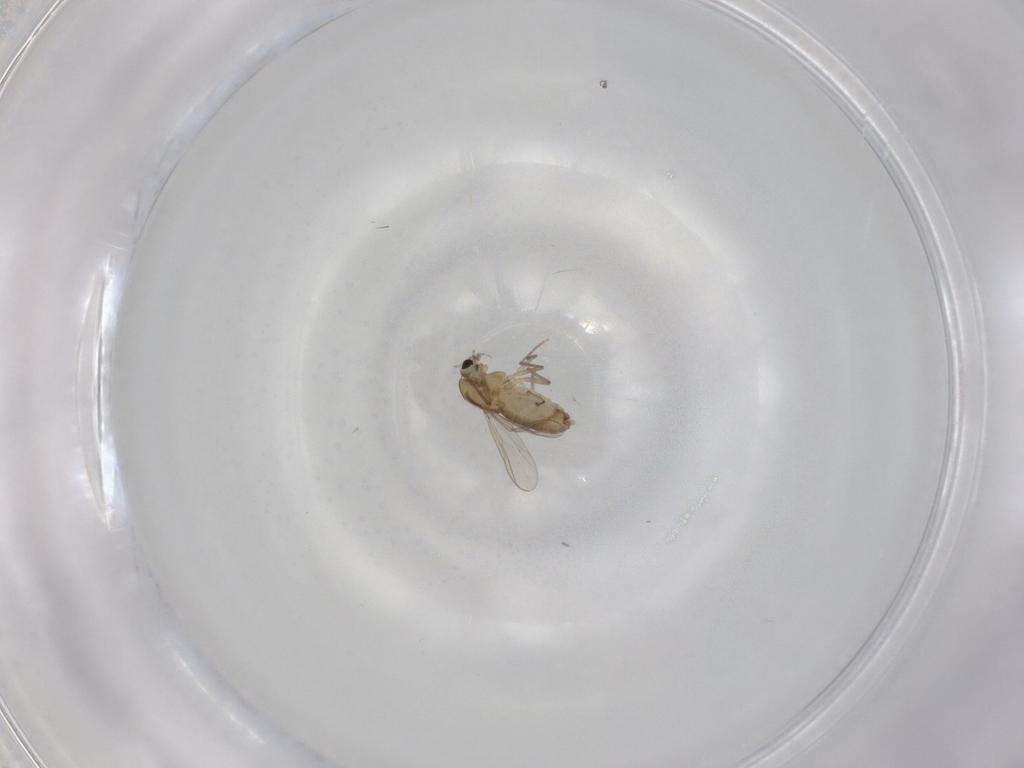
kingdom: Animalia
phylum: Arthropoda
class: Insecta
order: Diptera
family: Chironomidae
